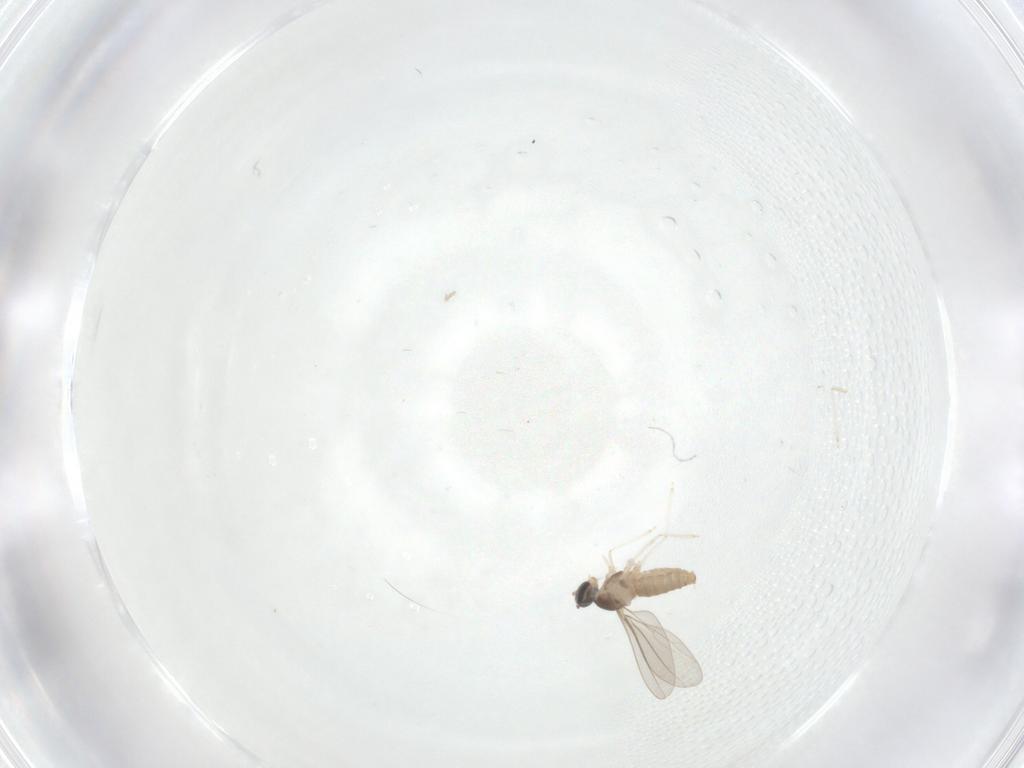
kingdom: Animalia
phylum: Arthropoda
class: Insecta
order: Diptera
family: Cecidomyiidae
